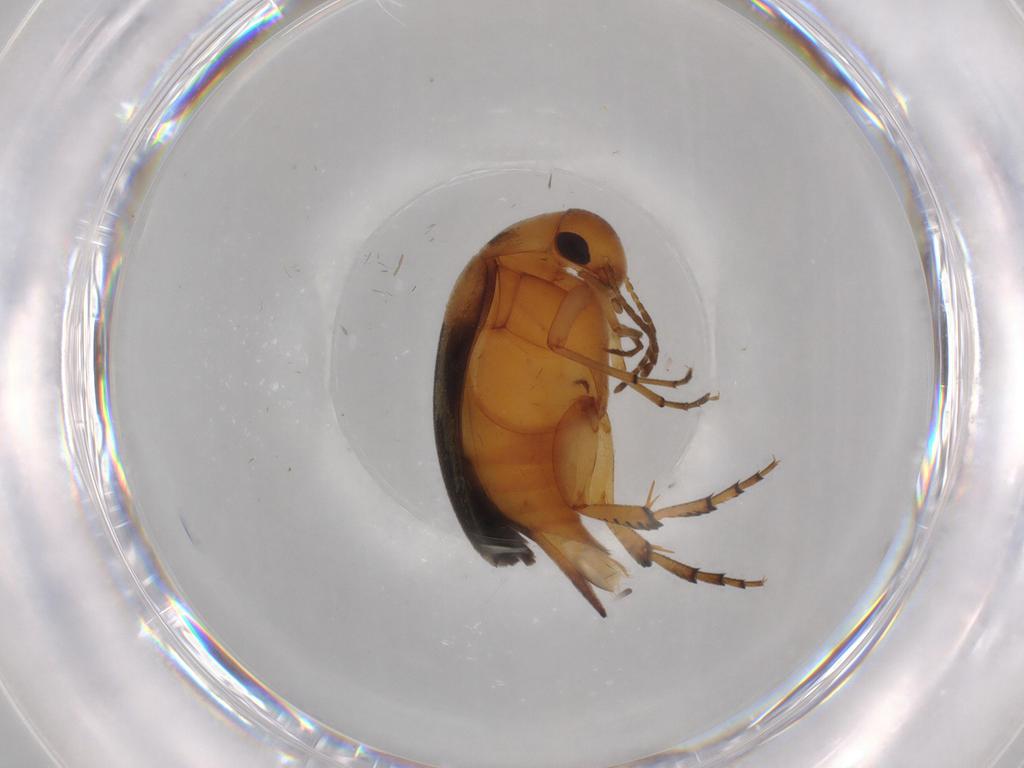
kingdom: Animalia
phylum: Arthropoda
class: Insecta
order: Coleoptera
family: Mordellidae
